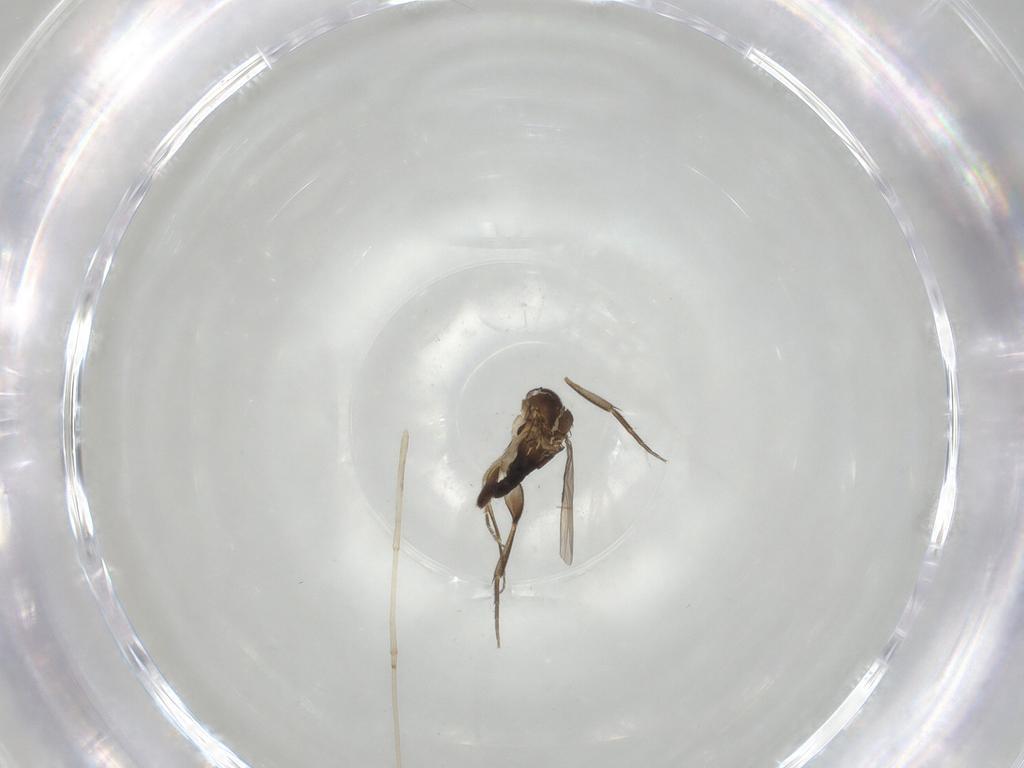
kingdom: Animalia
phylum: Arthropoda
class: Insecta
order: Diptera
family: Phoridae
